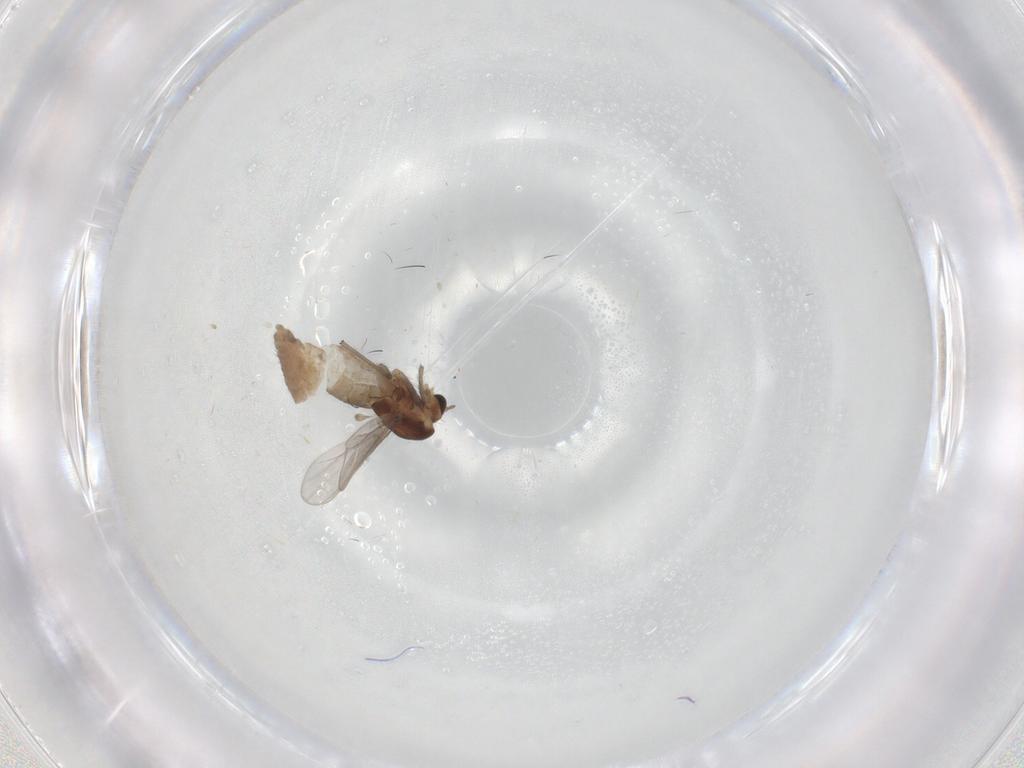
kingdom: Animalia
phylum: Arthropoda
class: Insecta
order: Diptera
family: Chironomidae
